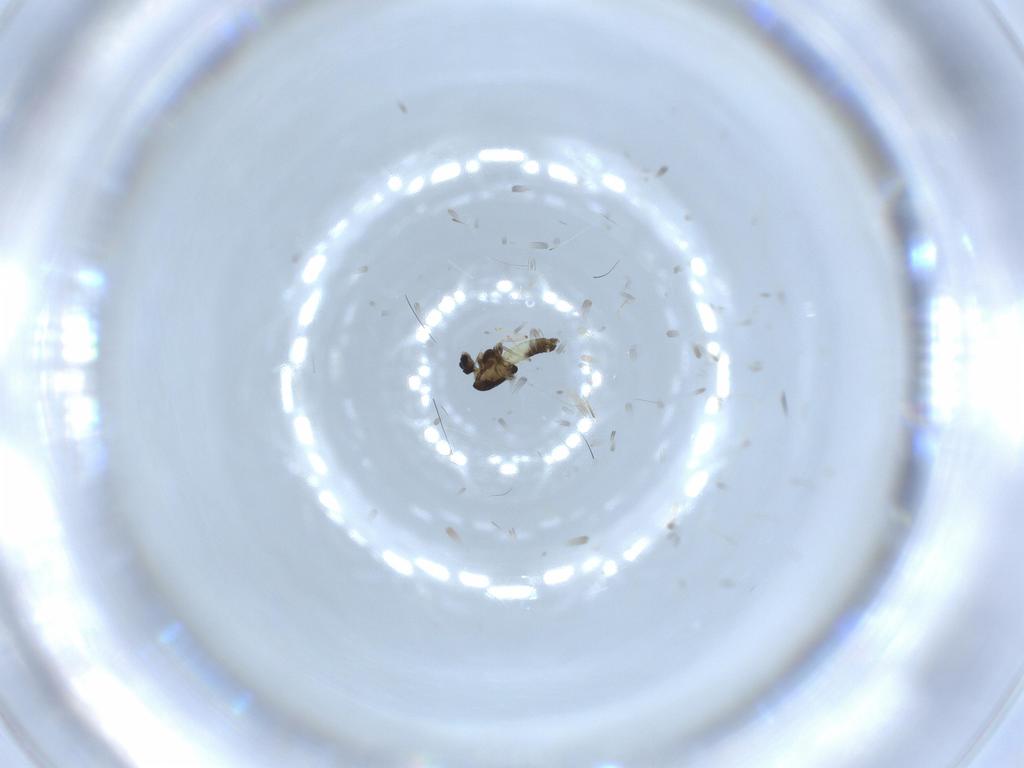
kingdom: Animalia
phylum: Arthropoda
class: Insecta
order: Diptera
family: Chironomidae
